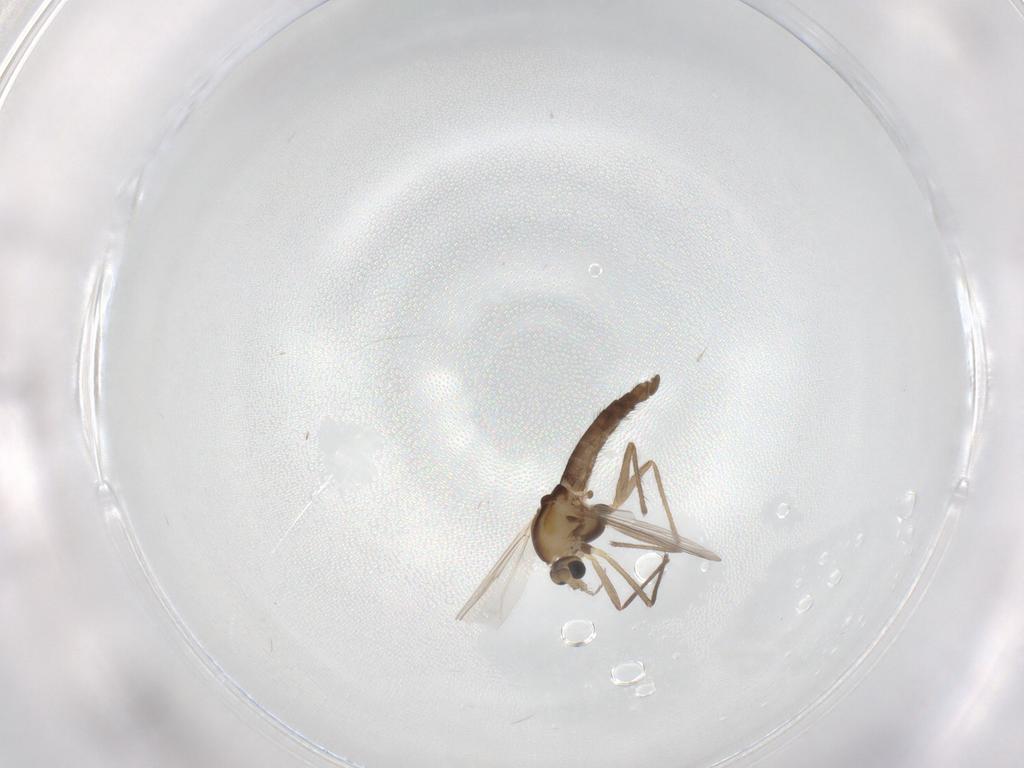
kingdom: Animalia
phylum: Arthropoda
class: Insecta
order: Diptera
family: Chironomidae
